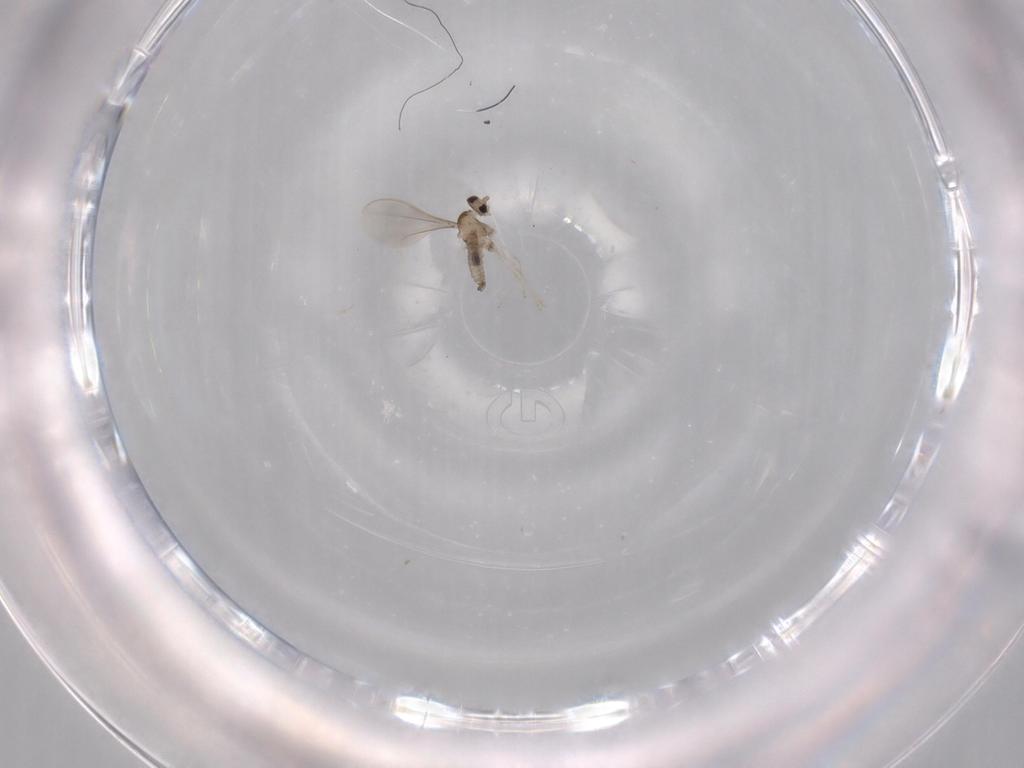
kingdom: Animalia
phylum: Arthropoda
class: Insecta
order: Diptera
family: Cecidomyiidae
